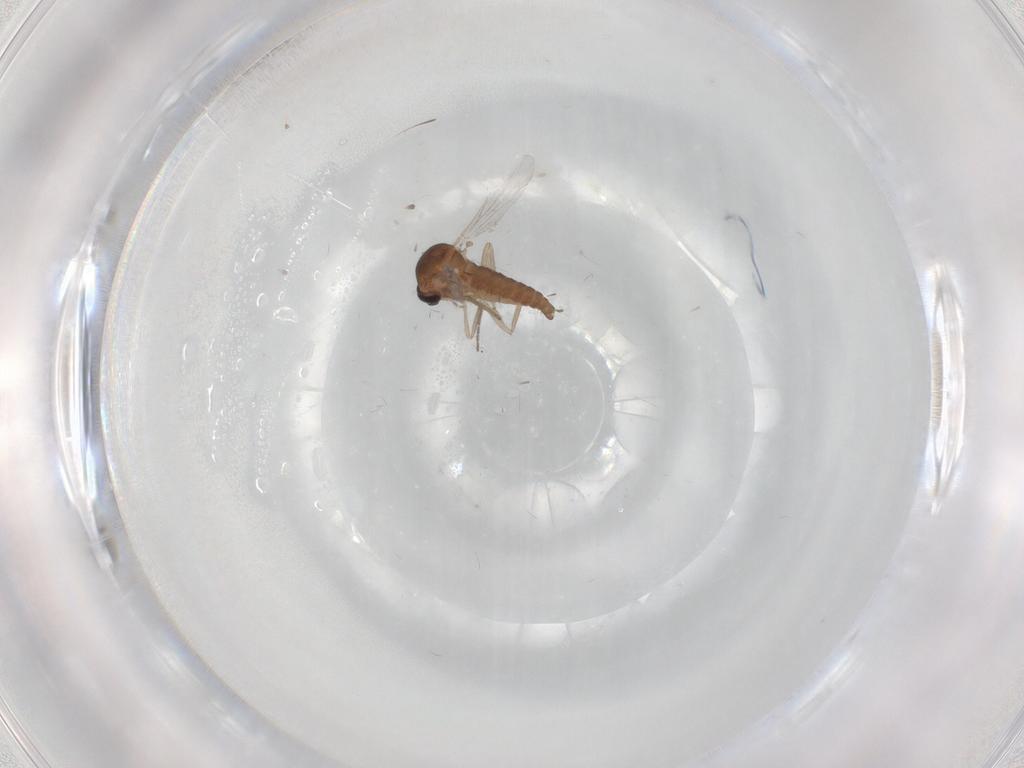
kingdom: Animalia
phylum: Arthropoda
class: Insecta
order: Diptera
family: Ceratopogonidae
